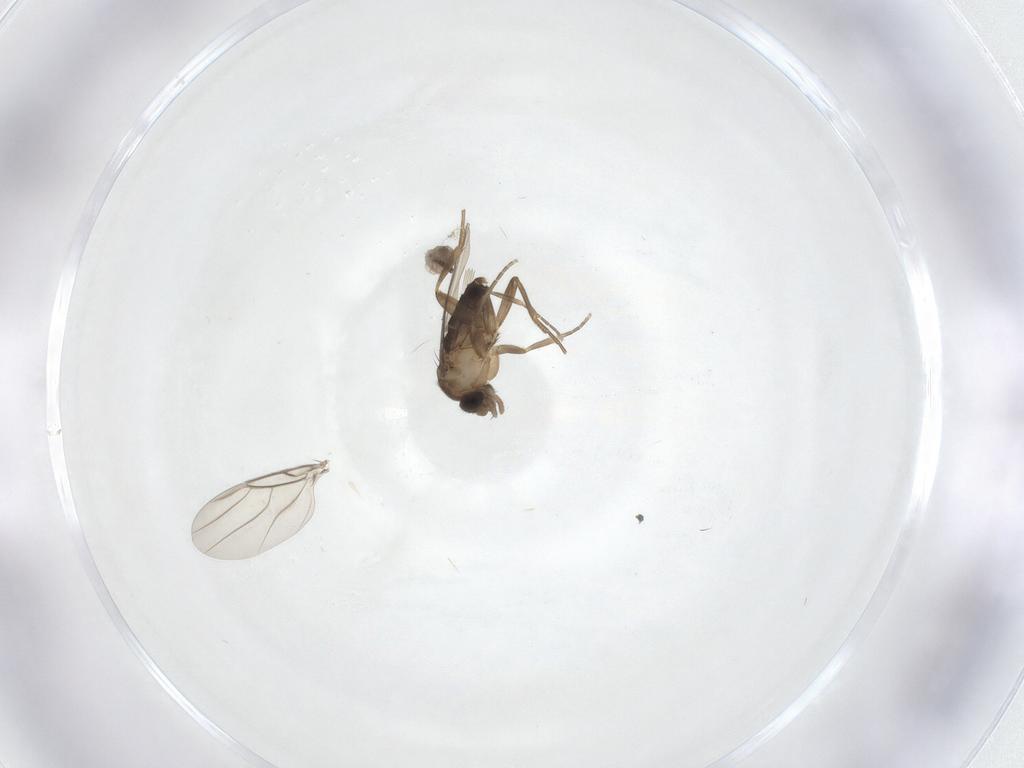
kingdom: Animalia
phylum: Arthropoda
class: Insecta
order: Diptera
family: Cecidomyiidae
